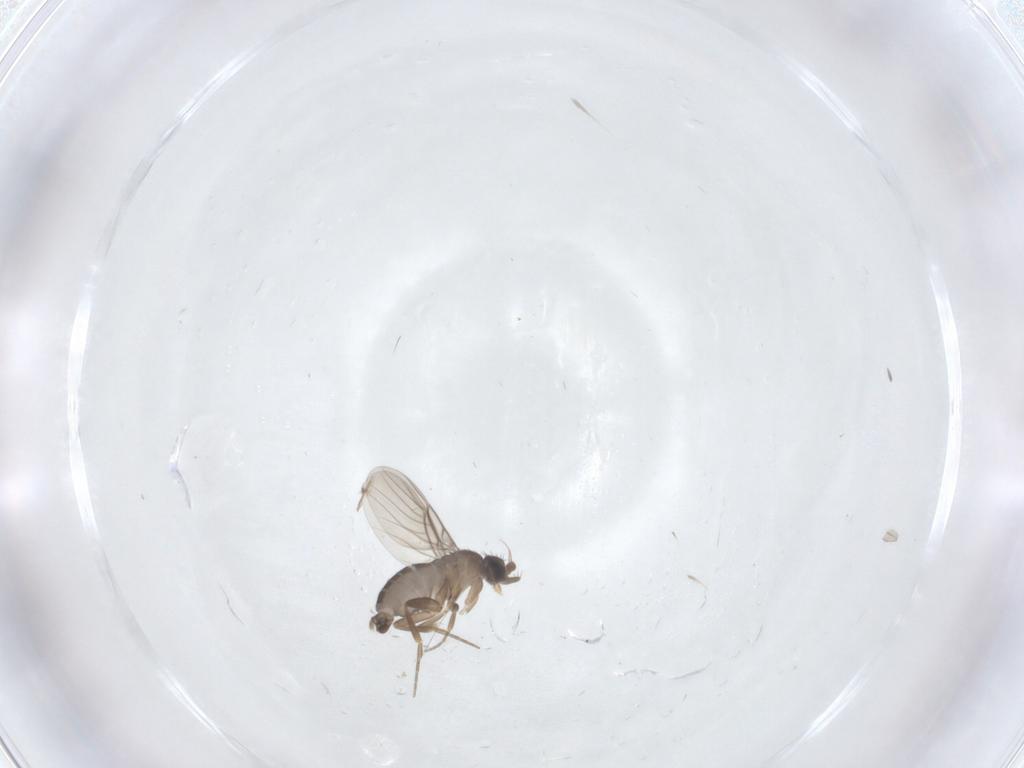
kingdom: Animalia
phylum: Arthropoda
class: Insecta
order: Diptera
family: Phoridae
